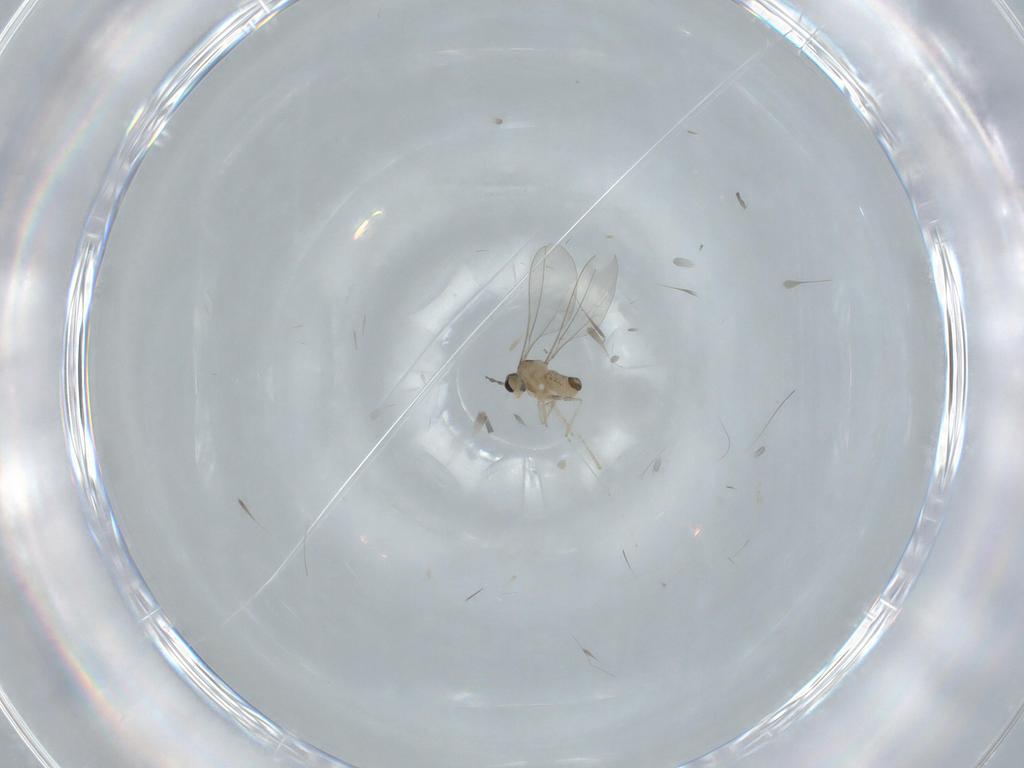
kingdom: Animalia
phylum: Arthropoda
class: Insecta
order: Diptera
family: Cecidomyiidae
